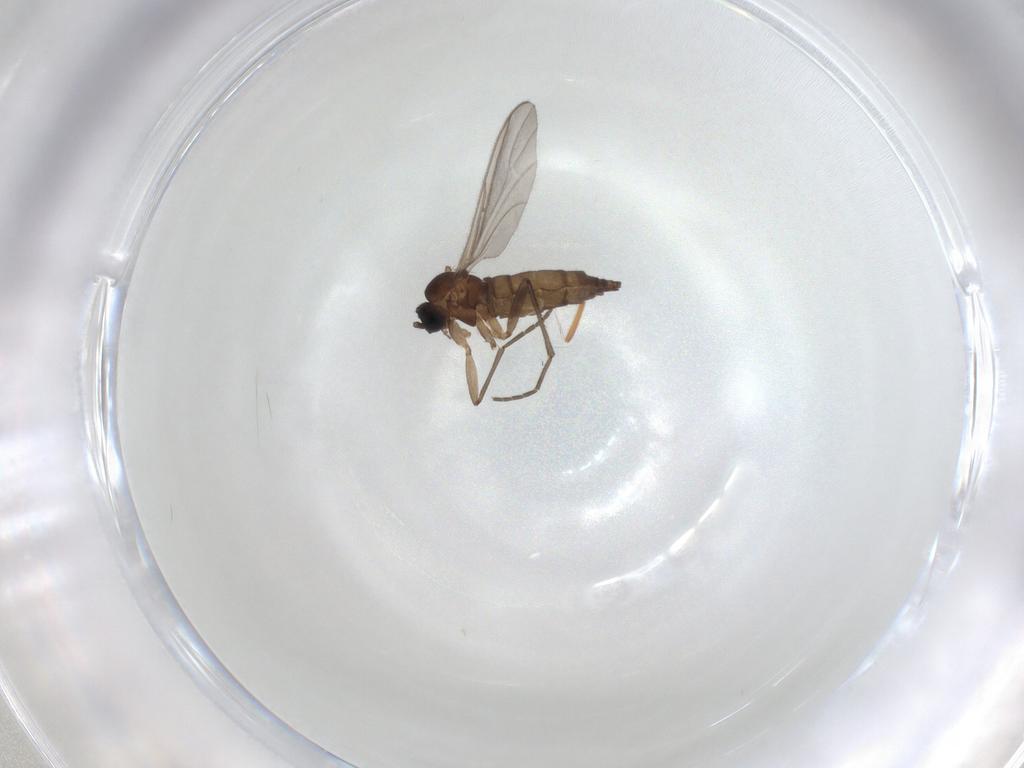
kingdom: Animalia
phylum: Arthropoda
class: Insecta
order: Diptera
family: Sciaridae
